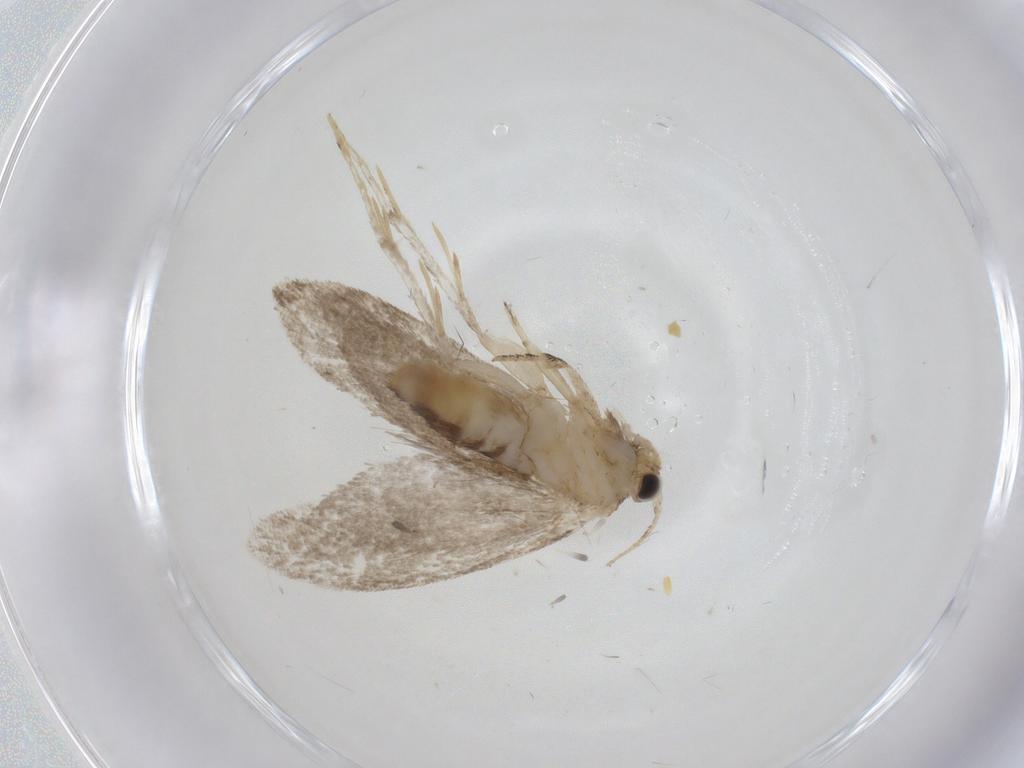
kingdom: Animalia
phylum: Arthropoda
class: Insecta
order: Lepidoptera
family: Tineidae
